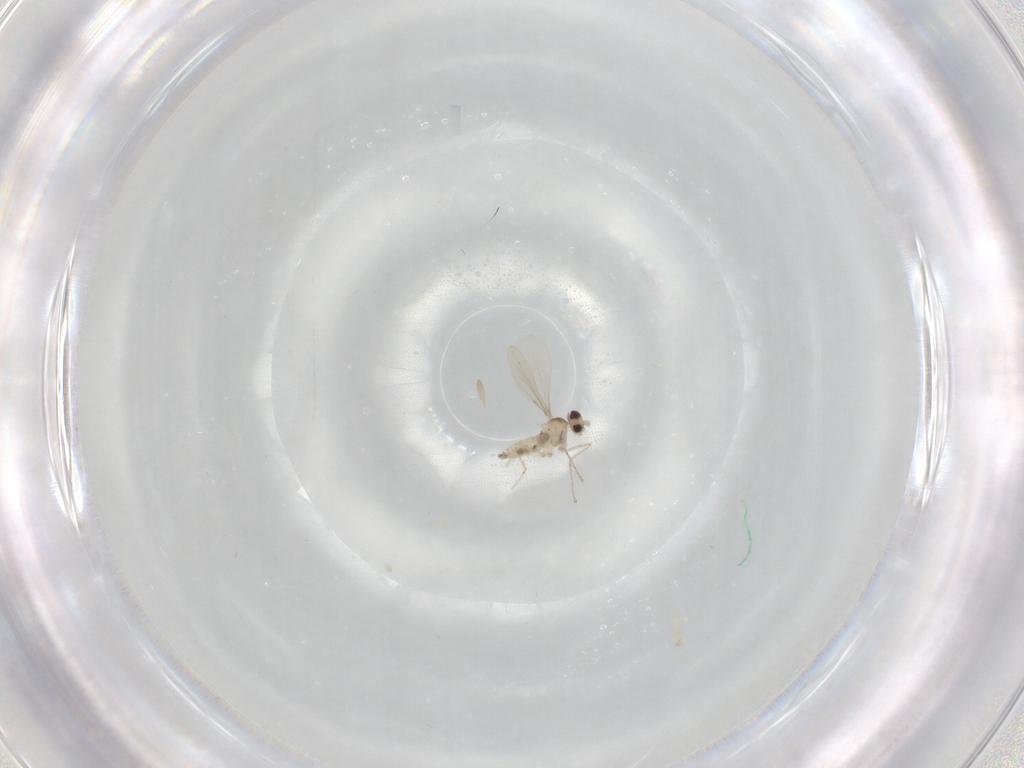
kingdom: Animalia
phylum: Arthropoda
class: Insecta
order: Diptera
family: Cecidomyiidae
